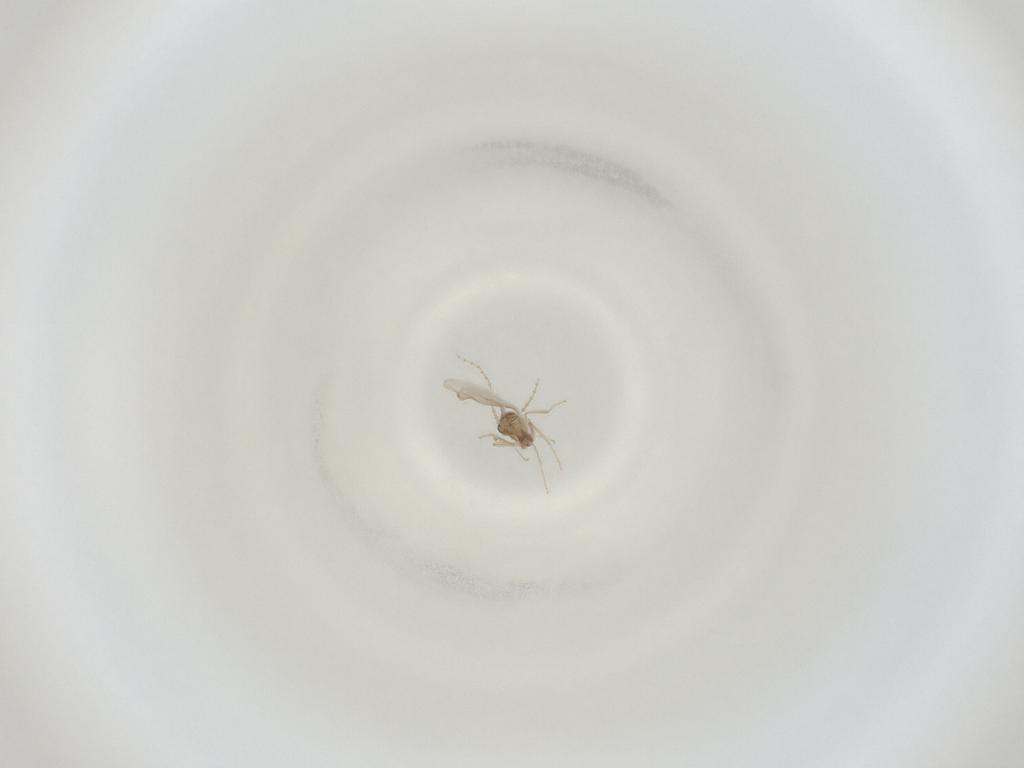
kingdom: Animalia
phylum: Arthropoda
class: Insecta
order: Diptera
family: Cecidomyiidae
